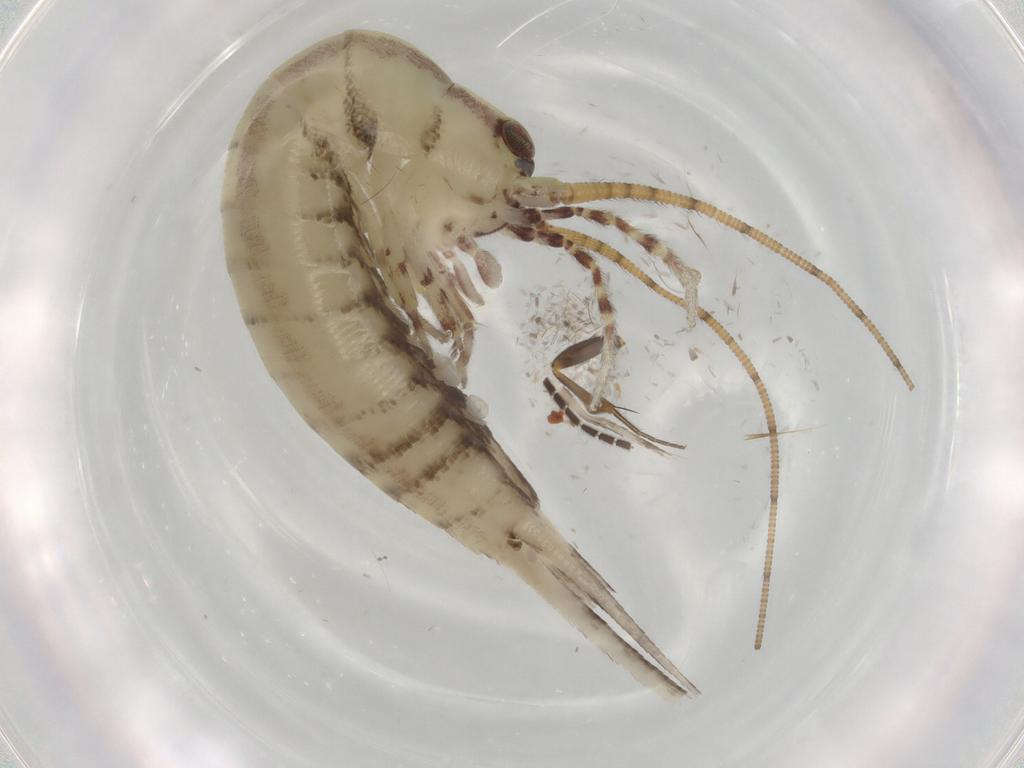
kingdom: Animalia
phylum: Arthropoda
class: Insecta
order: Archaeognatha
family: Machilidae
